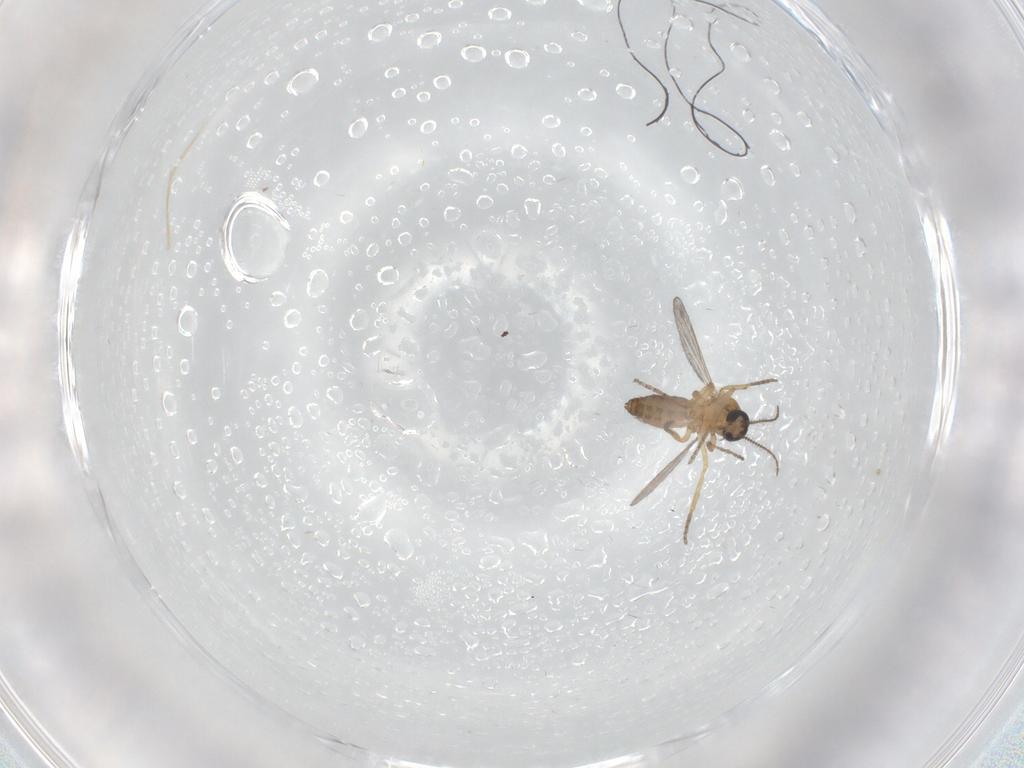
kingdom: Animalia
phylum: Arthropoda
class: Insecta
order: Diptera
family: Ceratopogonidae
